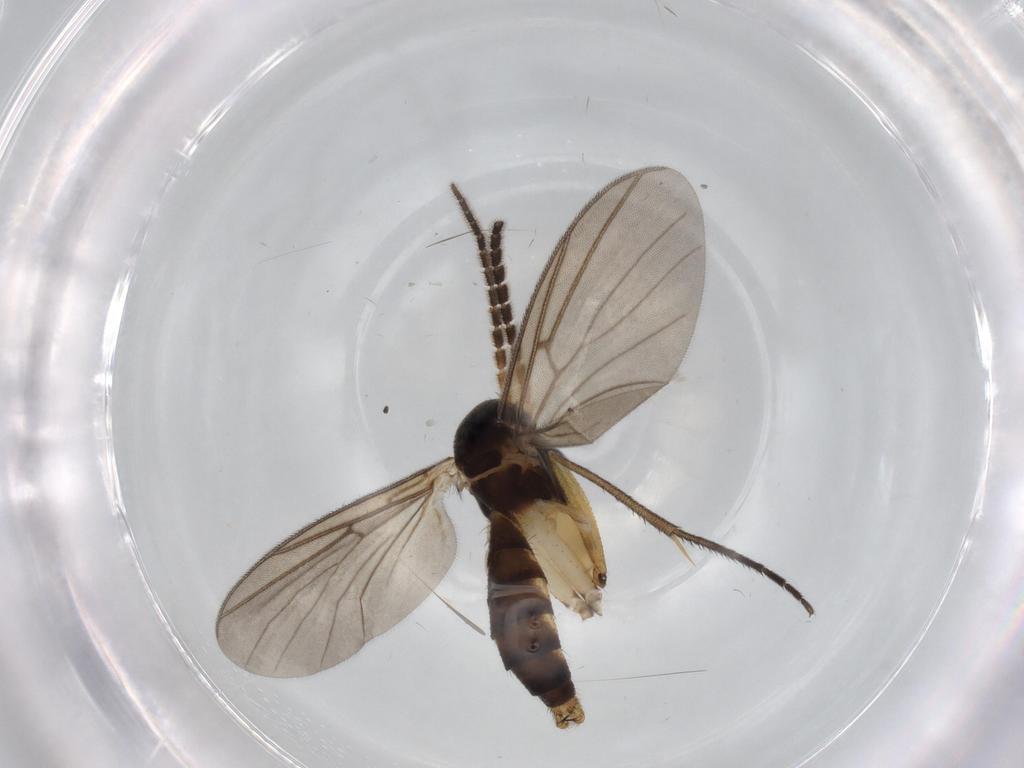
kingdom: Animalia
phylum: Arthropoda
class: Insecta
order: Diptera
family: Mycetophilidae
